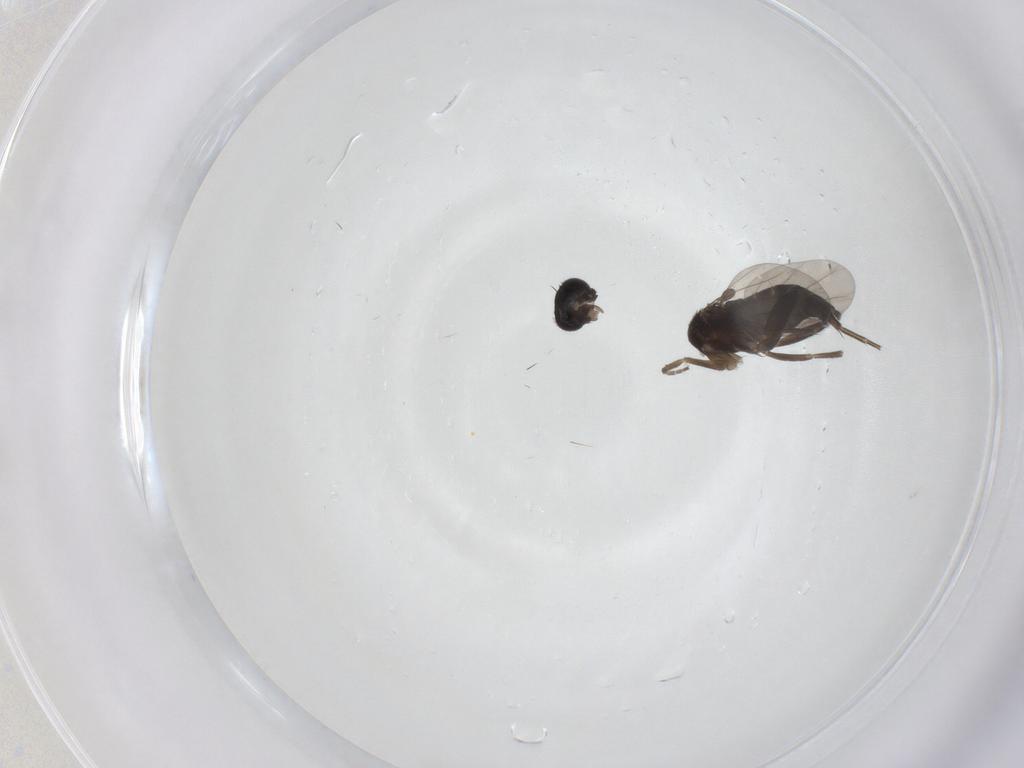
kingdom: Animalia
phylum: Arthropoda
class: Insecta
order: Diptera
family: Phoridae
